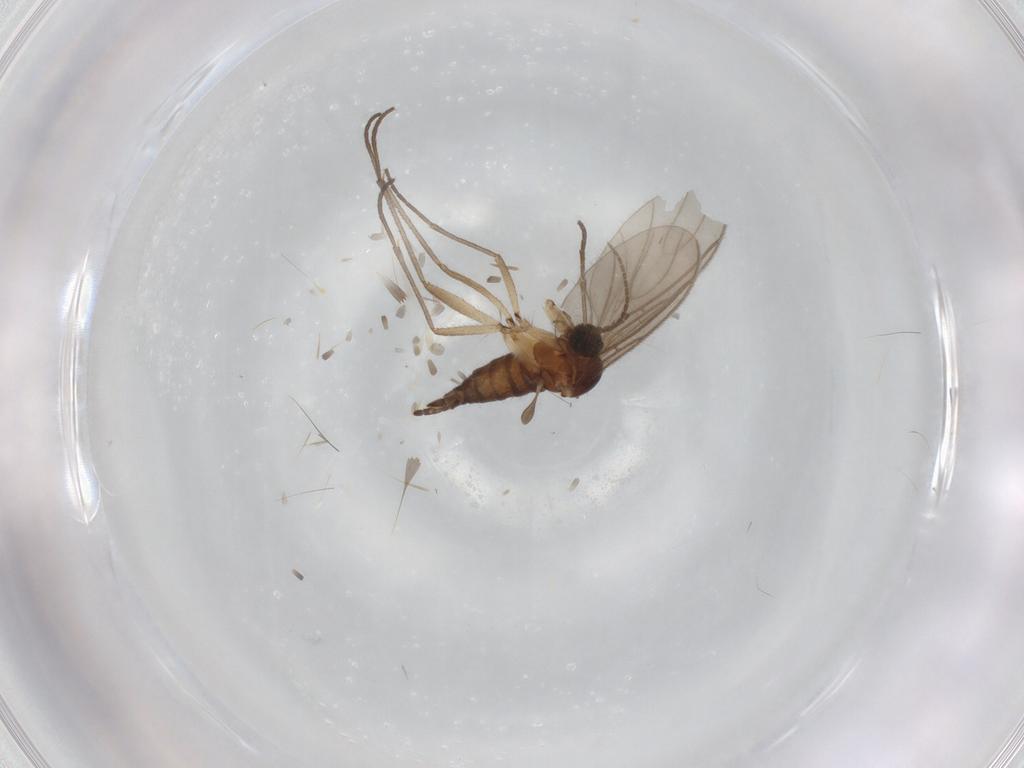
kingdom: Animalia
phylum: Arthropoda
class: Insecta
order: Diptera
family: Sciaridae
